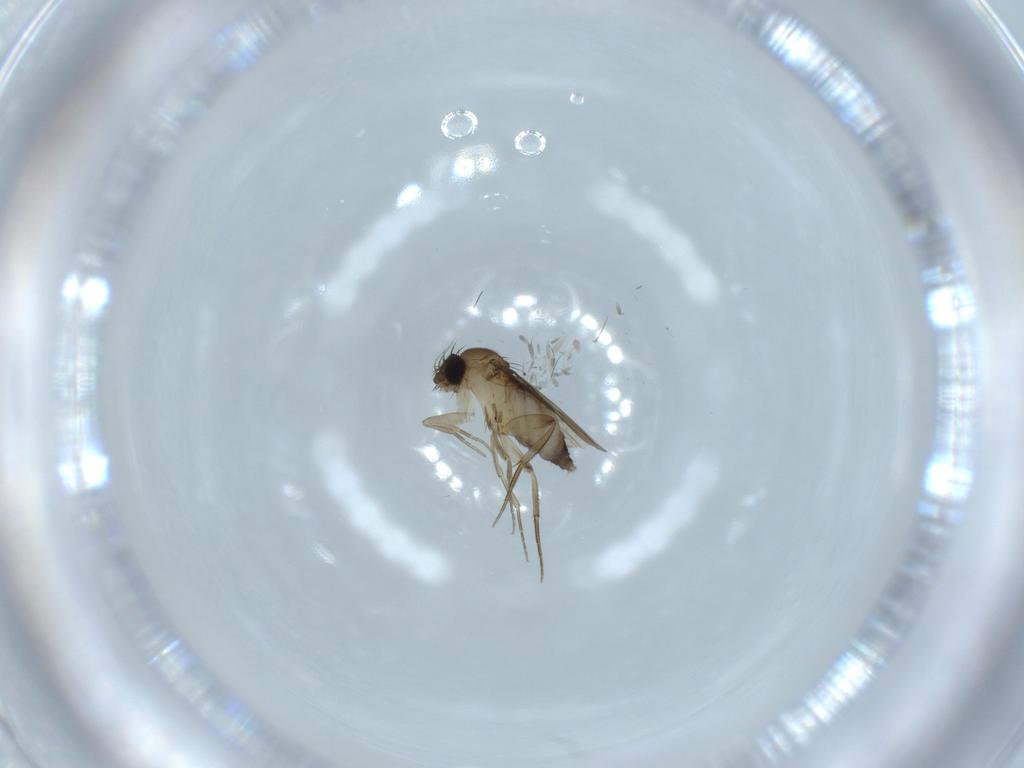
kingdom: Animalia
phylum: Arthropoda
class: Insecta
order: Diptera
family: Phoridae
